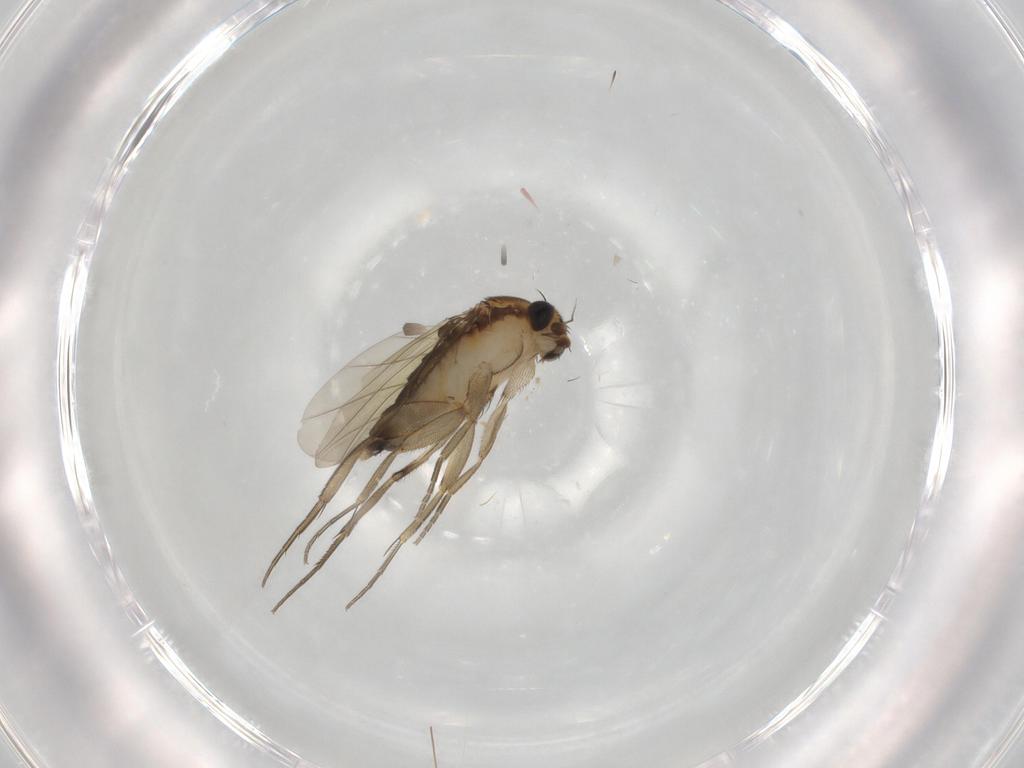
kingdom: Animalia
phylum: Arthropoda
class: Insecta
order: Diptera
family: Phoridae
